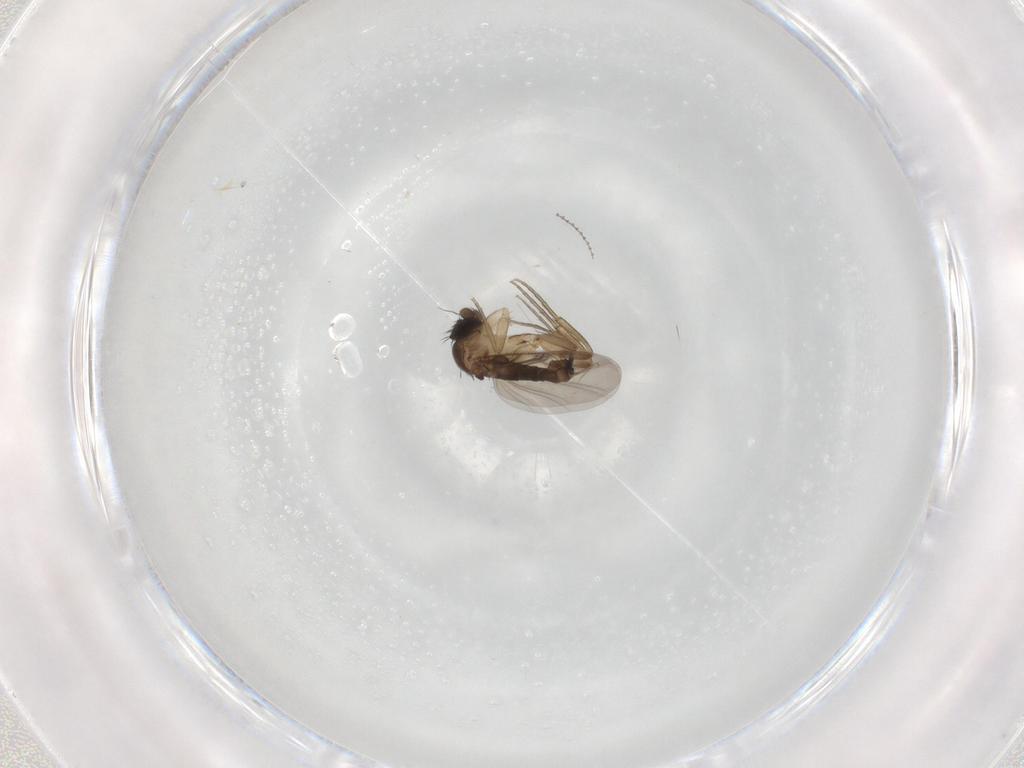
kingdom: Animalia
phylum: Arthropoda
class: Insecta
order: Diptera
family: Phoridae
